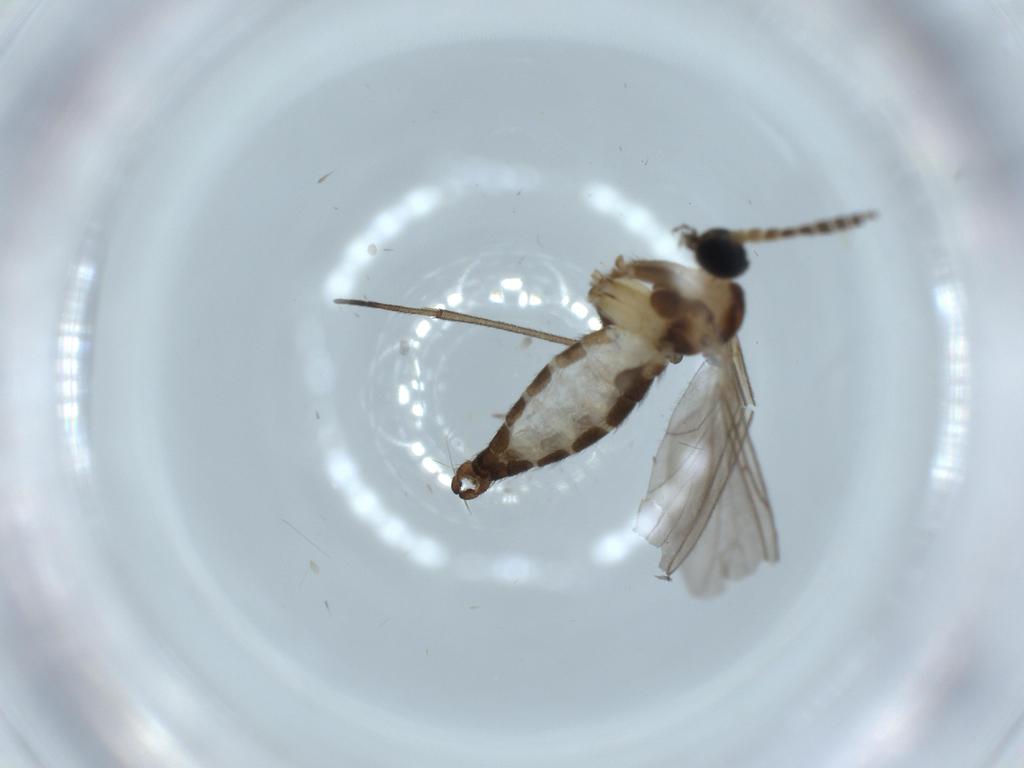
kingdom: Animalia
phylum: Arthropoda
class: Insecta
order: Diptera
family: Sciaridae
